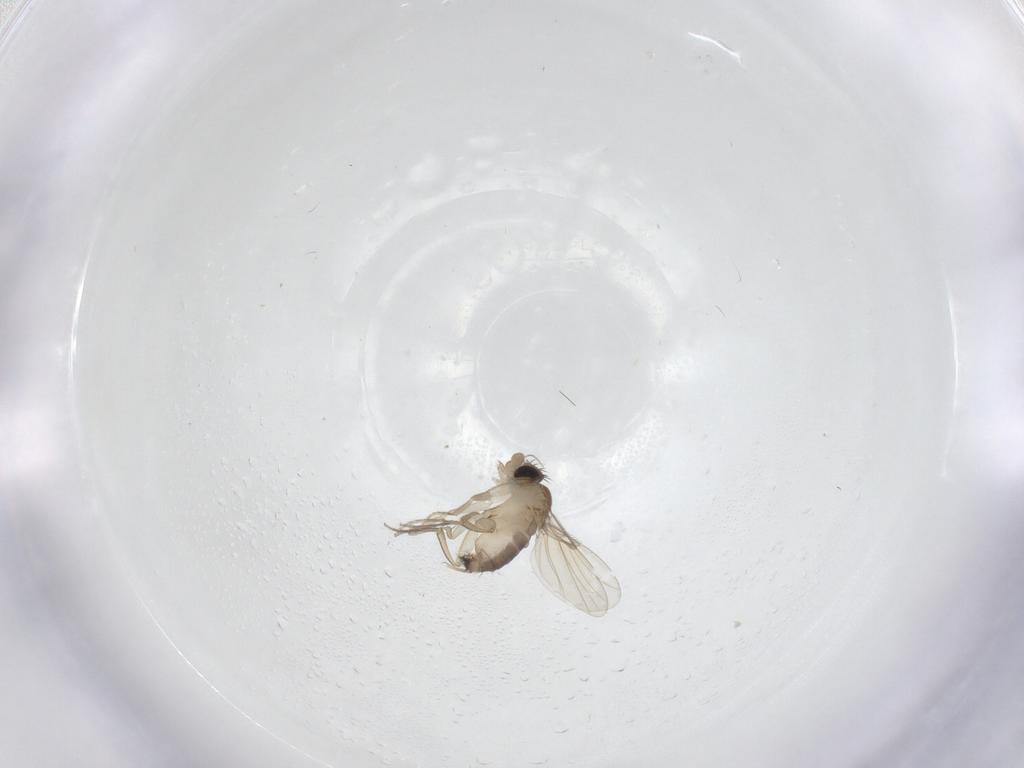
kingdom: Animalia
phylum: Arthropoda
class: Insecta
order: Diptera
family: Phoridae
